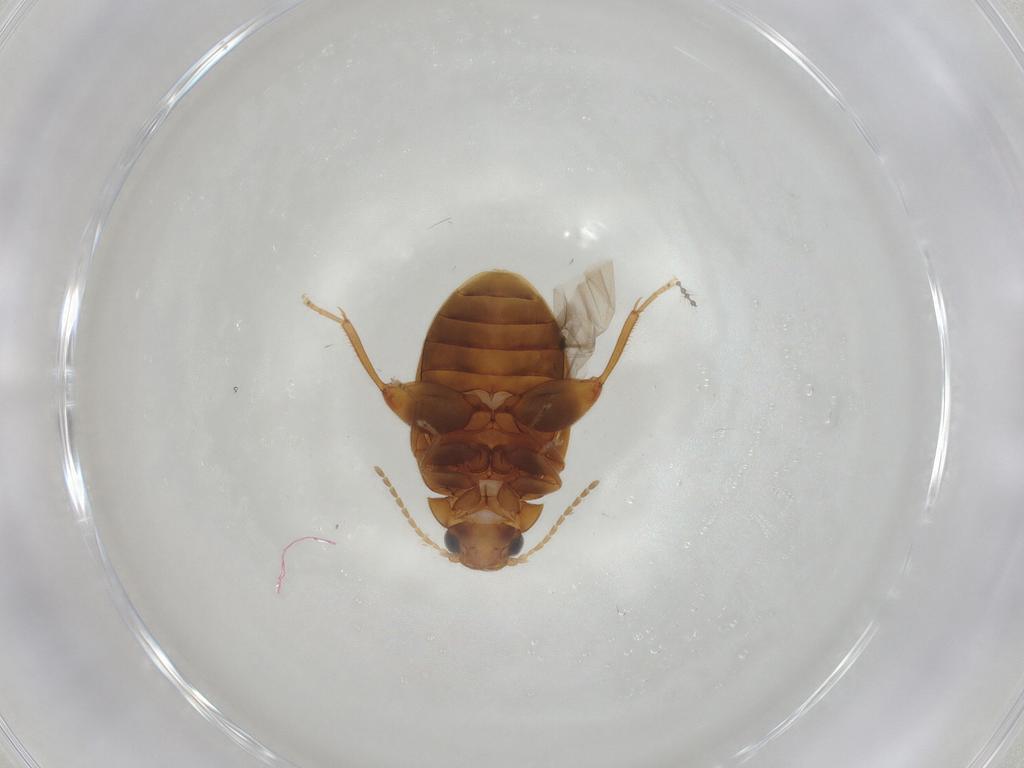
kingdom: Animalia
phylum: Arthropoda
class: Insecta
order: Coleoptera
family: Scirtidae
